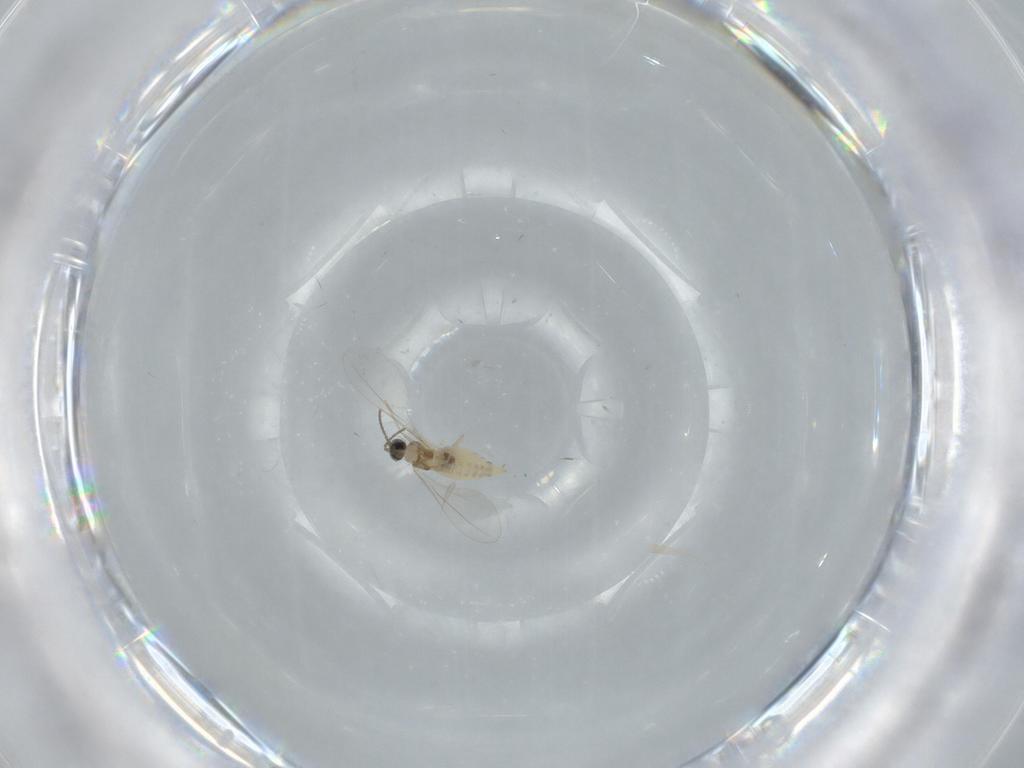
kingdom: Animalia
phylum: Arthropoda
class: Insecta
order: Diptera
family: Cecidomyiidae
